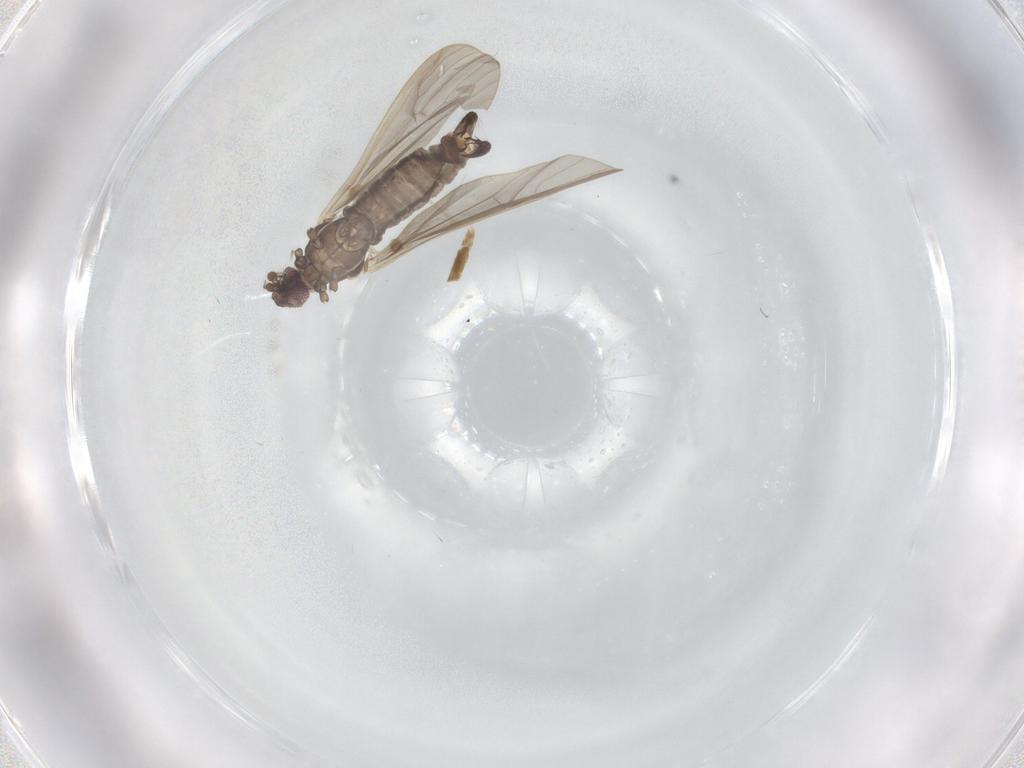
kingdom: Animalia
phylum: Arthropoda
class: Insecta
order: Diptera
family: Limoniidae
